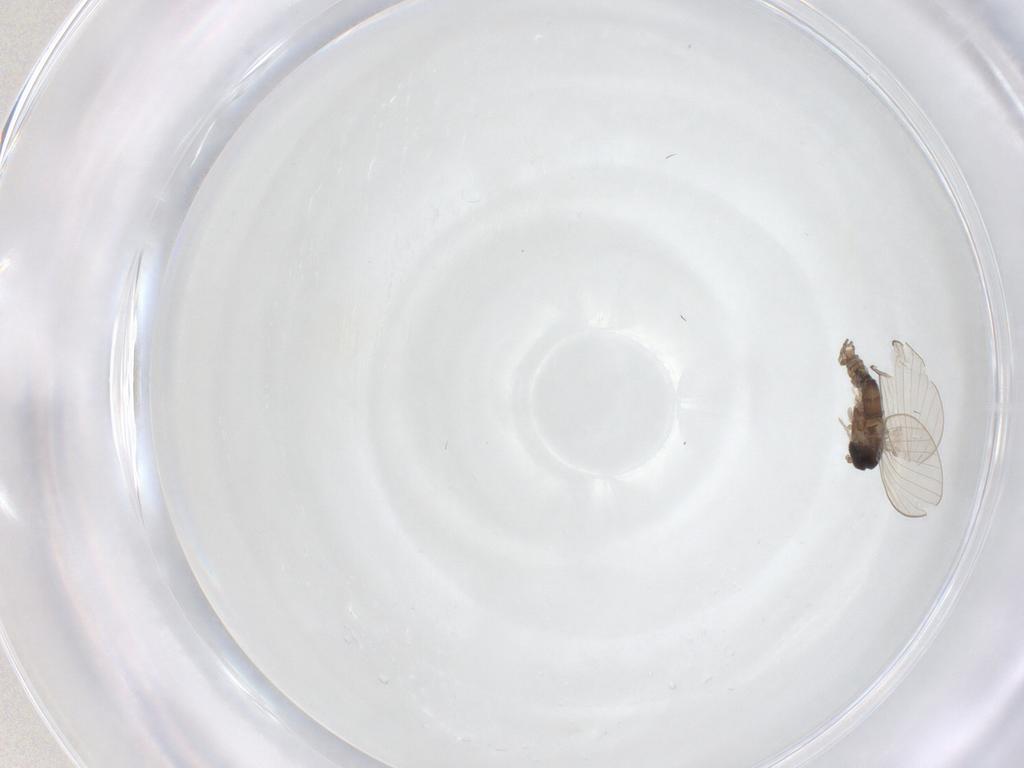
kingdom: Animalia
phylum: Arthropoda
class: Insecta
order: Diptera
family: Psychodidae
